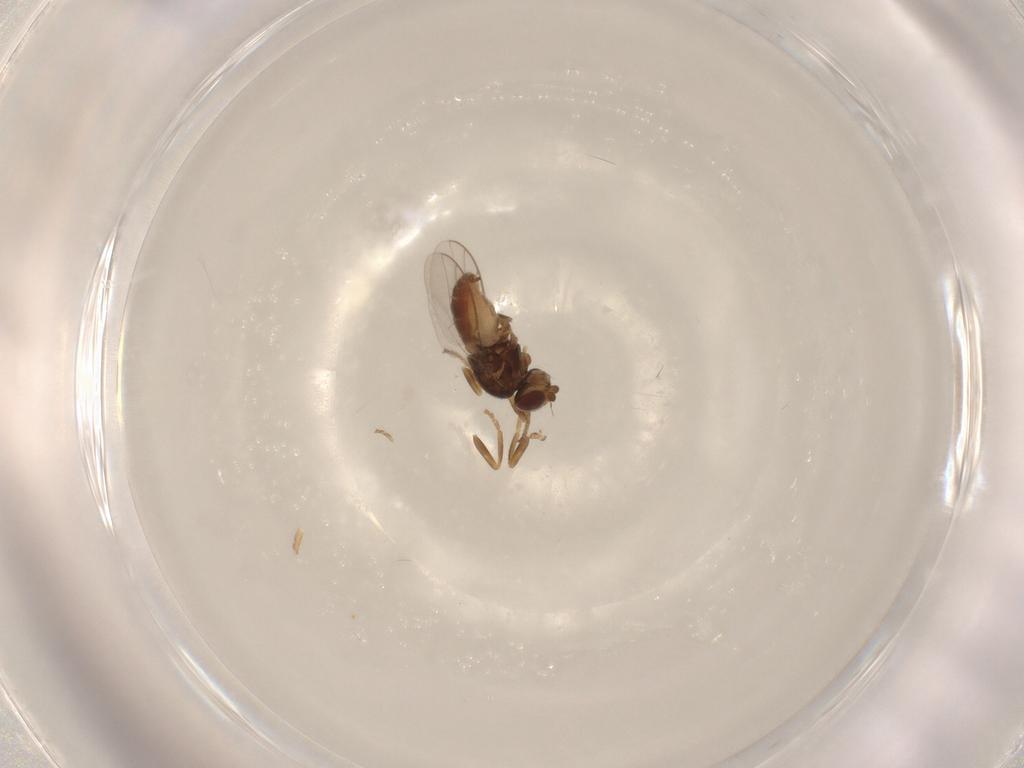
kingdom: Animalia
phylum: Arthropoda
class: Insecta
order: Diptera
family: Chloropidae
